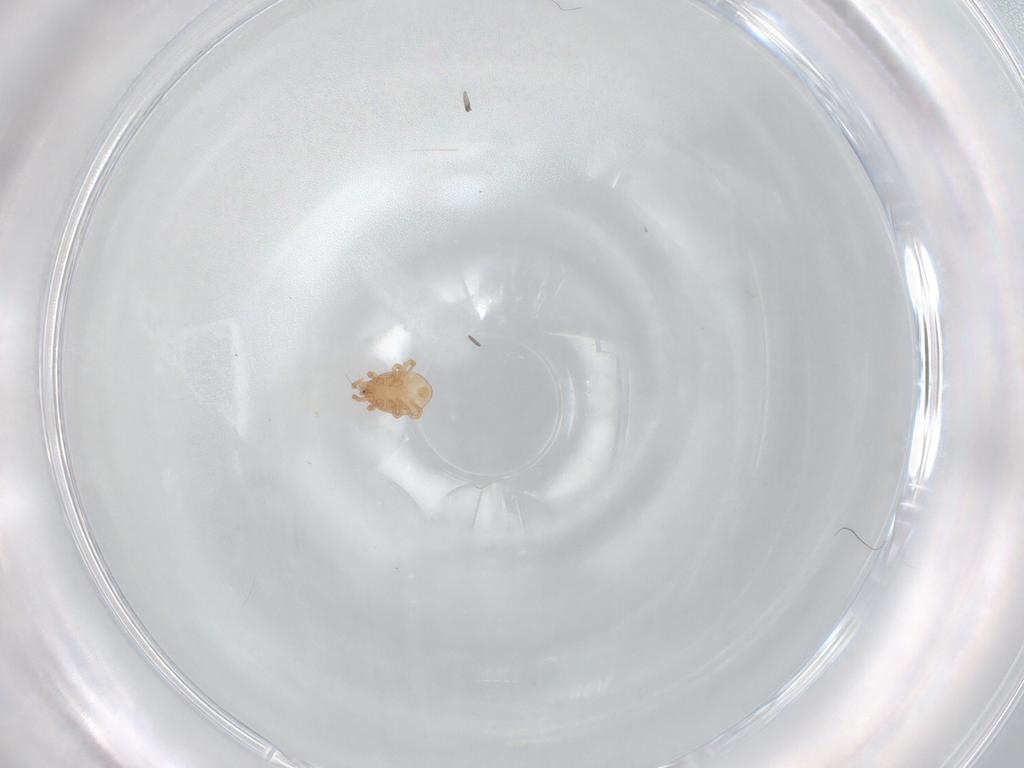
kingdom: Animalia
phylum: Arthropoda
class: Arachnida
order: Mesostigmata
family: Melicharidae
